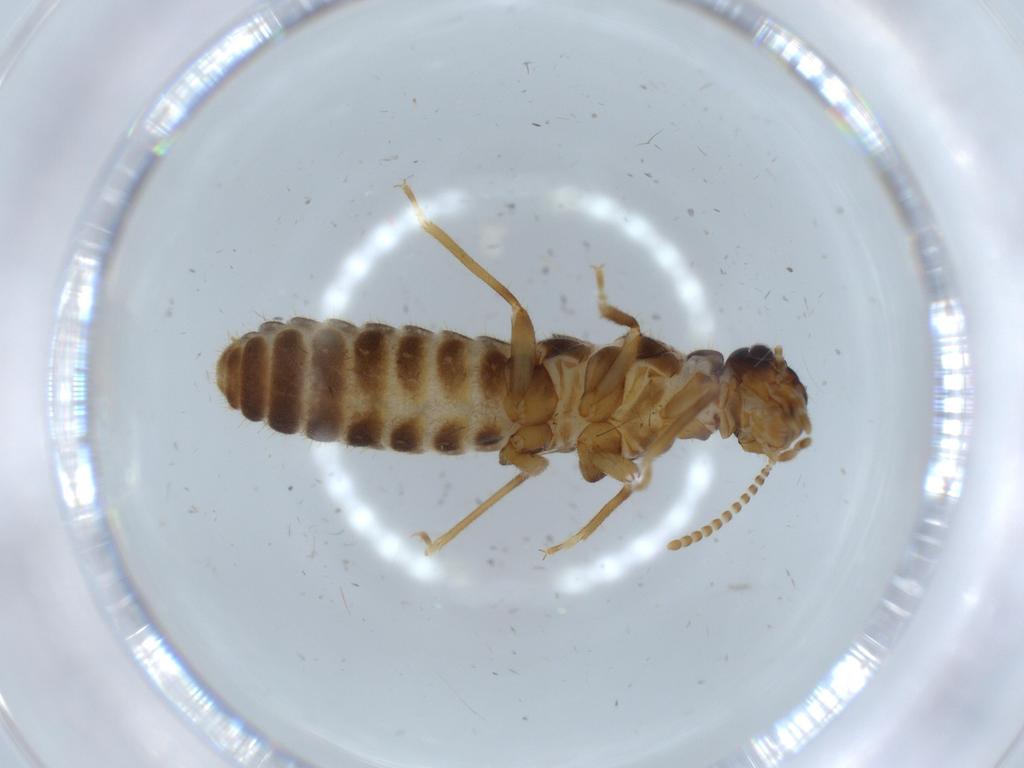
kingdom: Animalia
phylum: Arthropoda
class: Insecta
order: Blattodea
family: Termitidae
